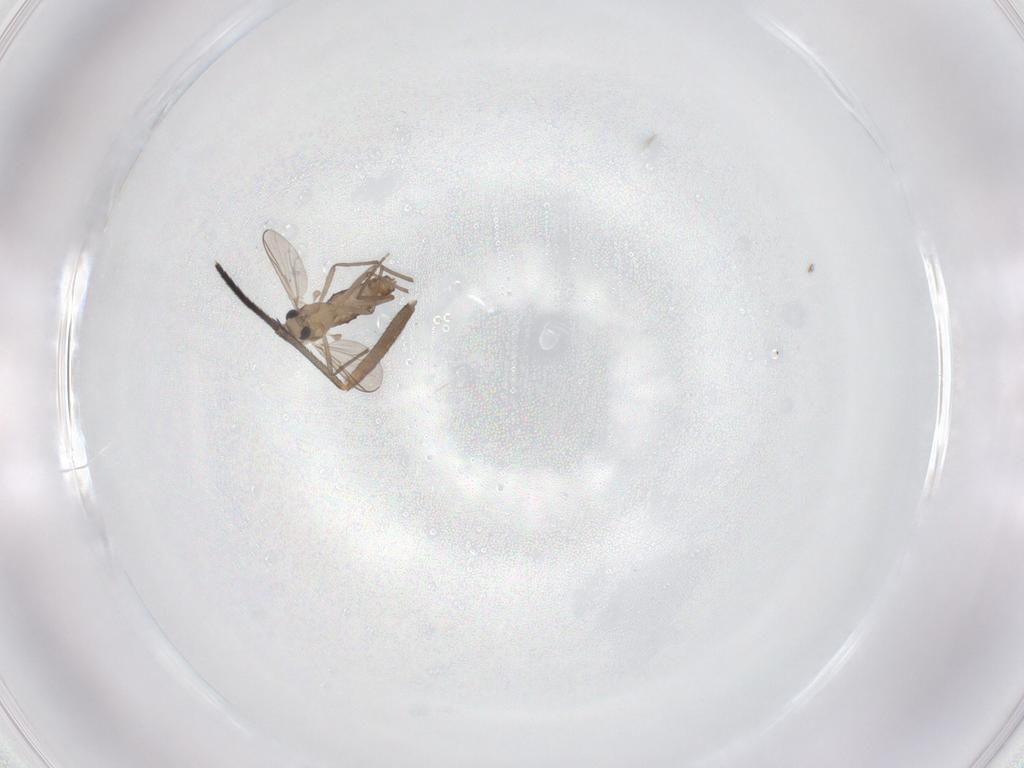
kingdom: Animalia
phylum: Arthropoda
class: Insecta
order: Diptera
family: Chironomidae
